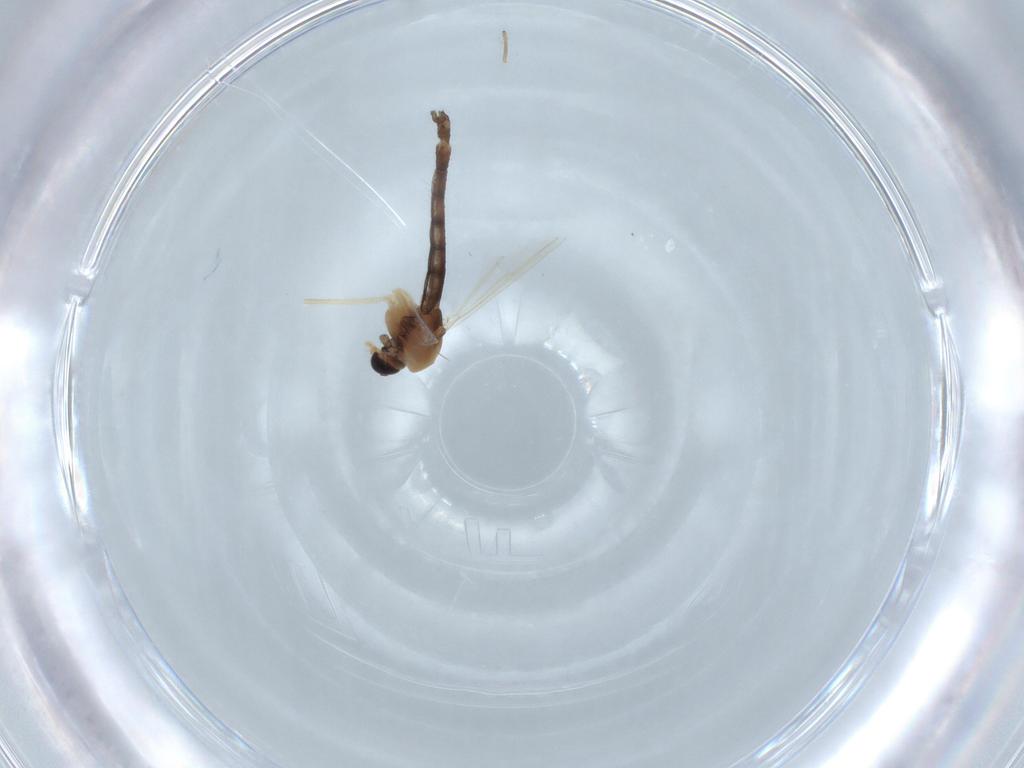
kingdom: Animalia
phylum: Arthropoda
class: Insecta
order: Diptera
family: Chironomidae
